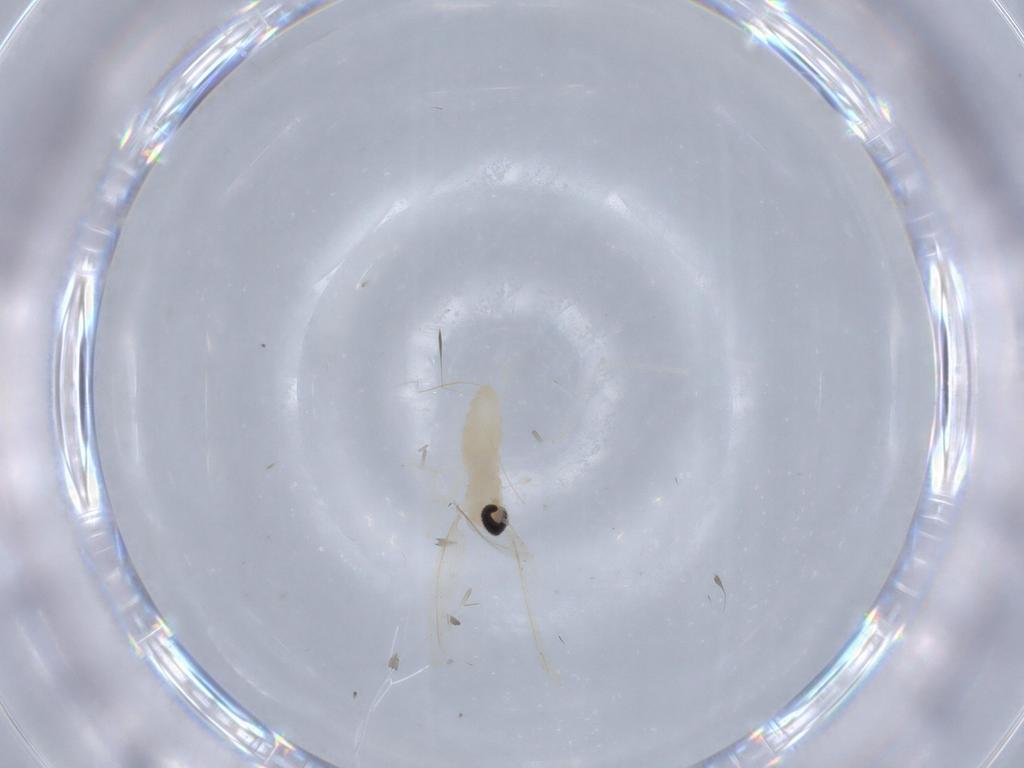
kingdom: Animalia
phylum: Arthropoda
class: Insecta
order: Diptera
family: Ceratopogonidae
